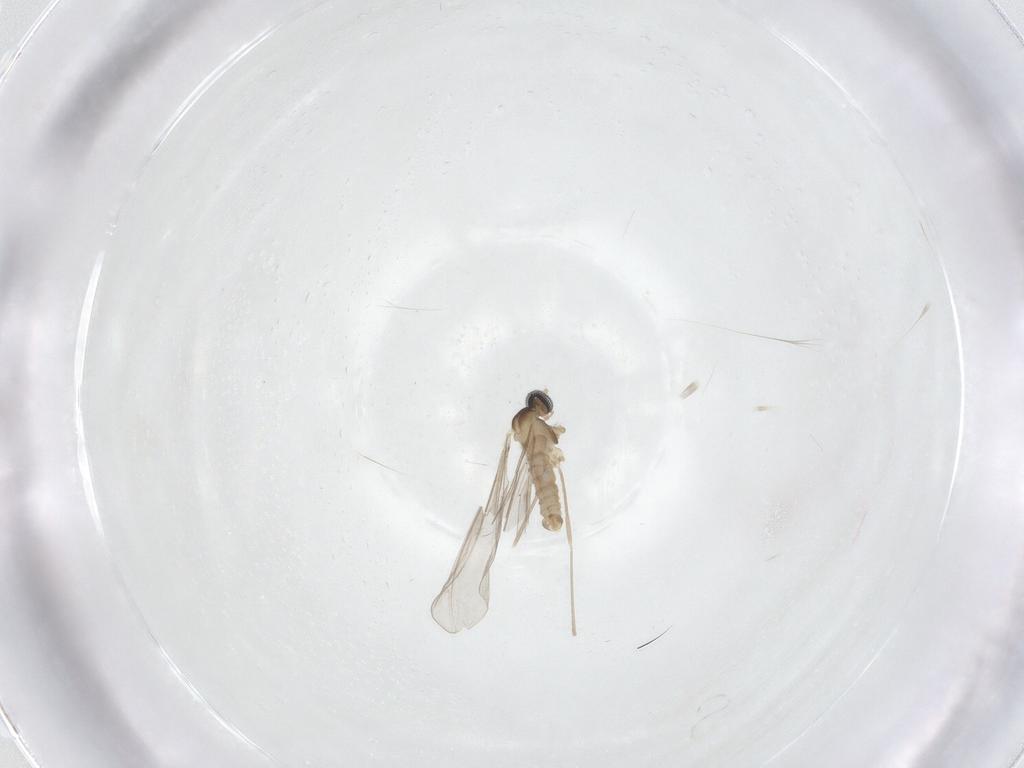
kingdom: Animalia
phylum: Arthropoda
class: Insecta
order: Diptera
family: Cecidomyiidae
